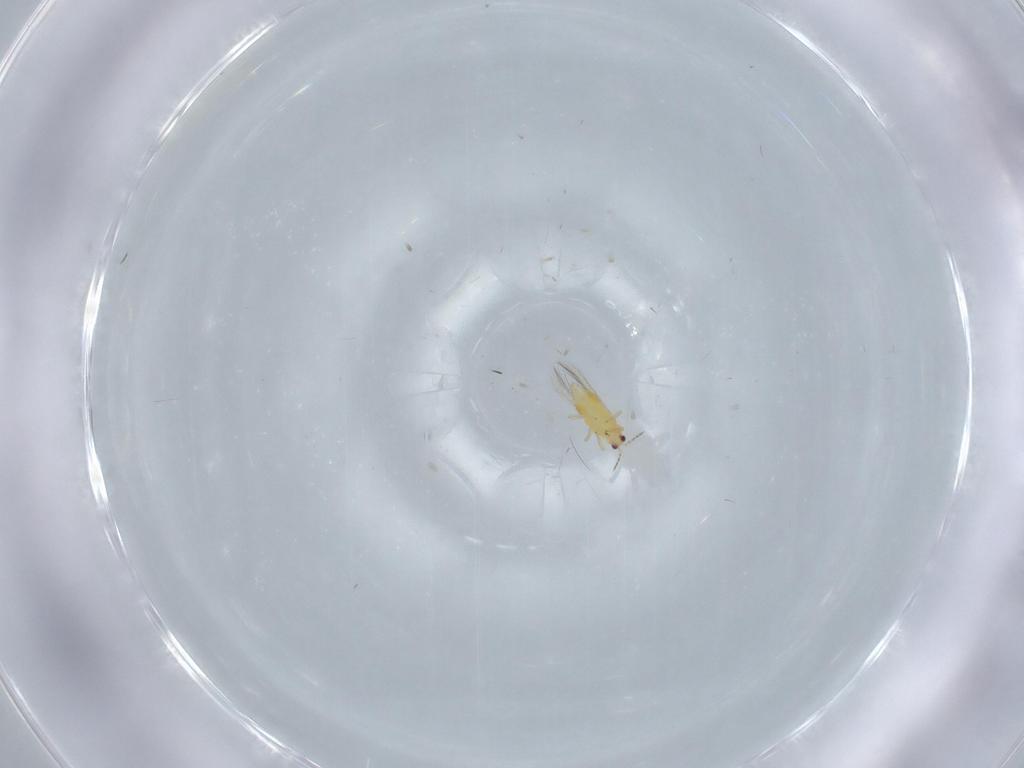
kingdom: Animalia
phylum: Arthropoda
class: Insecta
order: Thysanoptera
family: Thripidae
